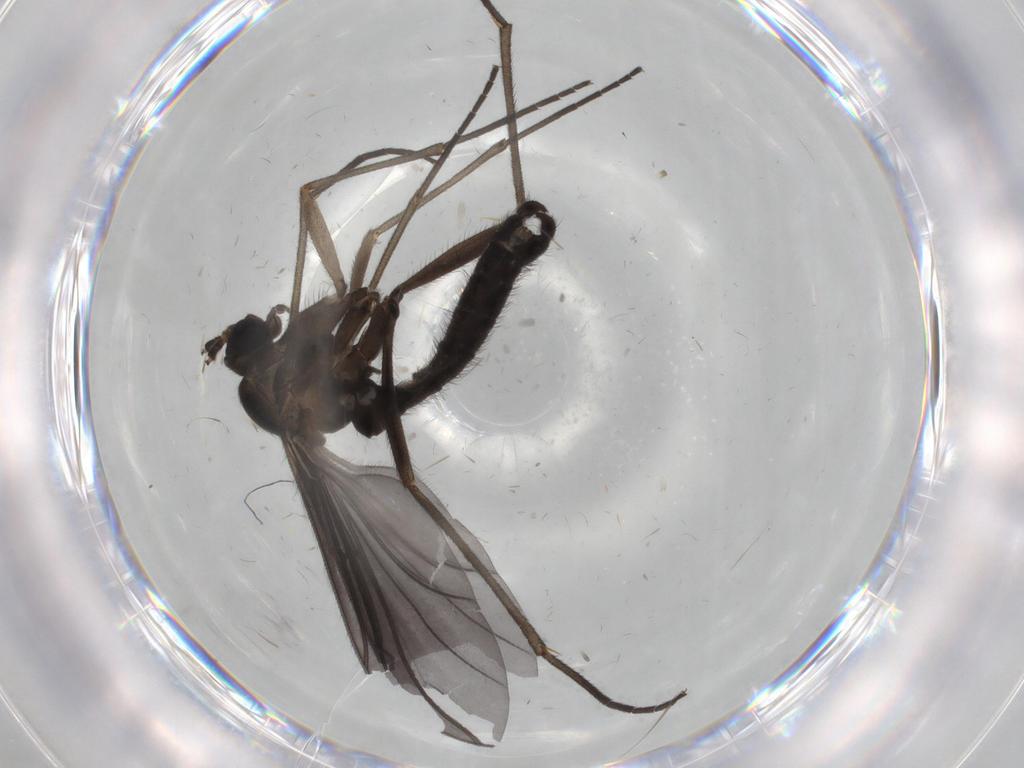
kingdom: Animalia
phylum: Arthropoda
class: Insecta
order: Diptera
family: Psychodidae
